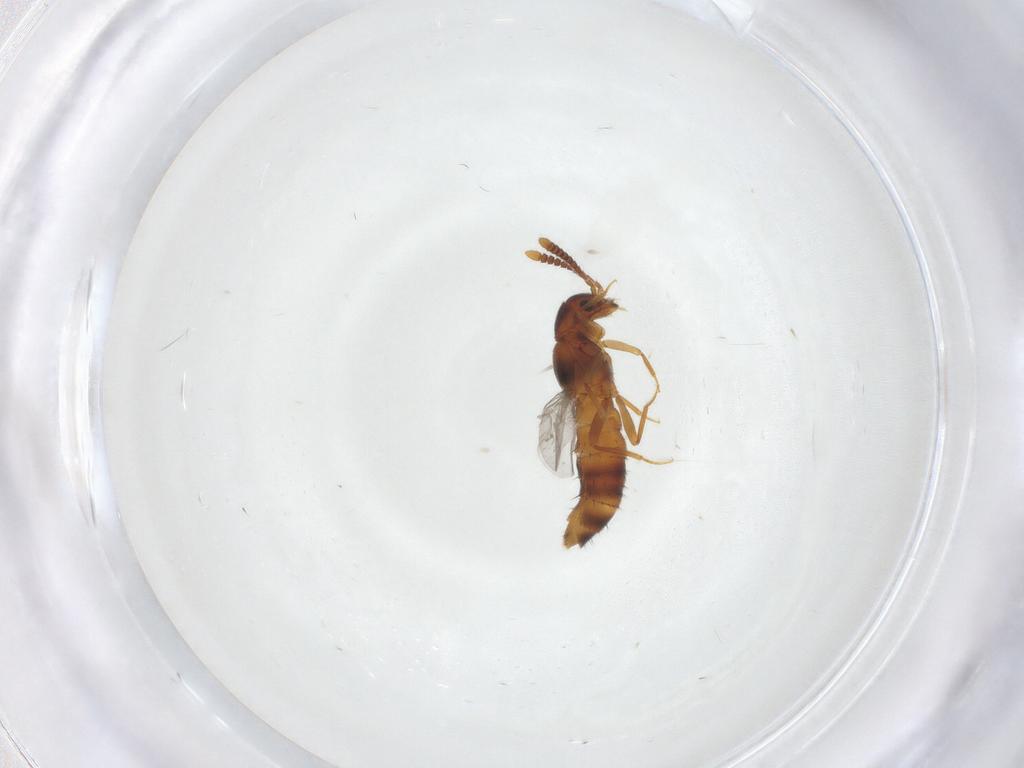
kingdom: Animalia
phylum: Arthropoda
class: Insecta
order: Coleoptera
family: Staphylinidae
